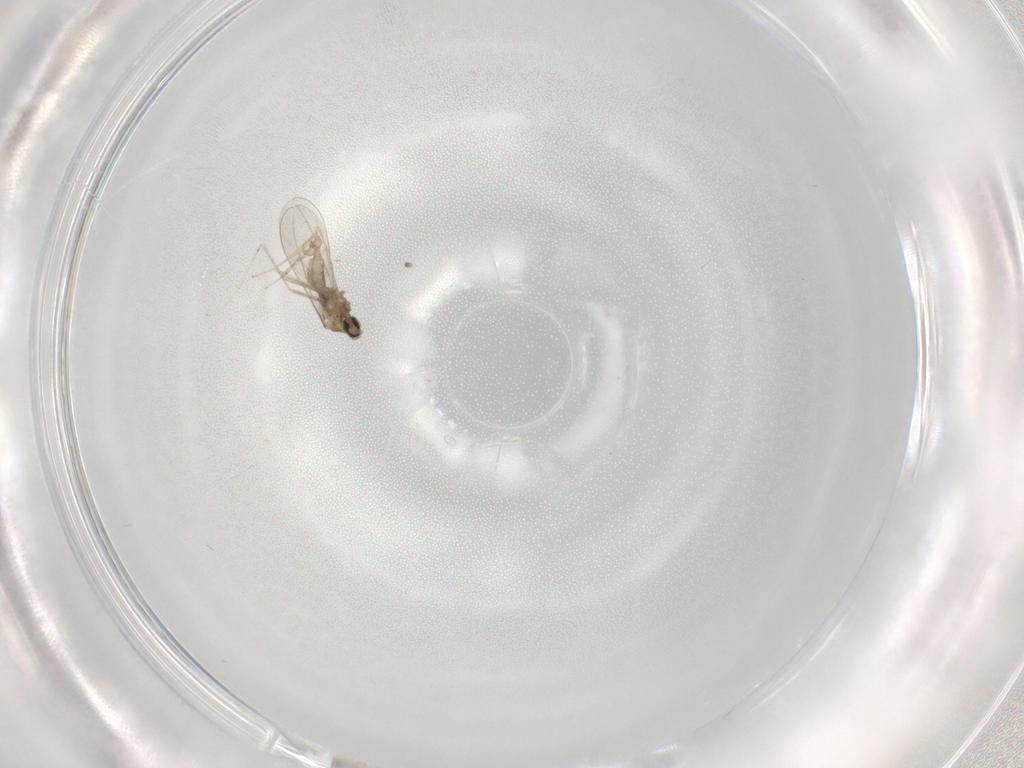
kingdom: Animalia
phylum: Arthropoda
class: Insecta
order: Diptera
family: Cecidomyiidae
